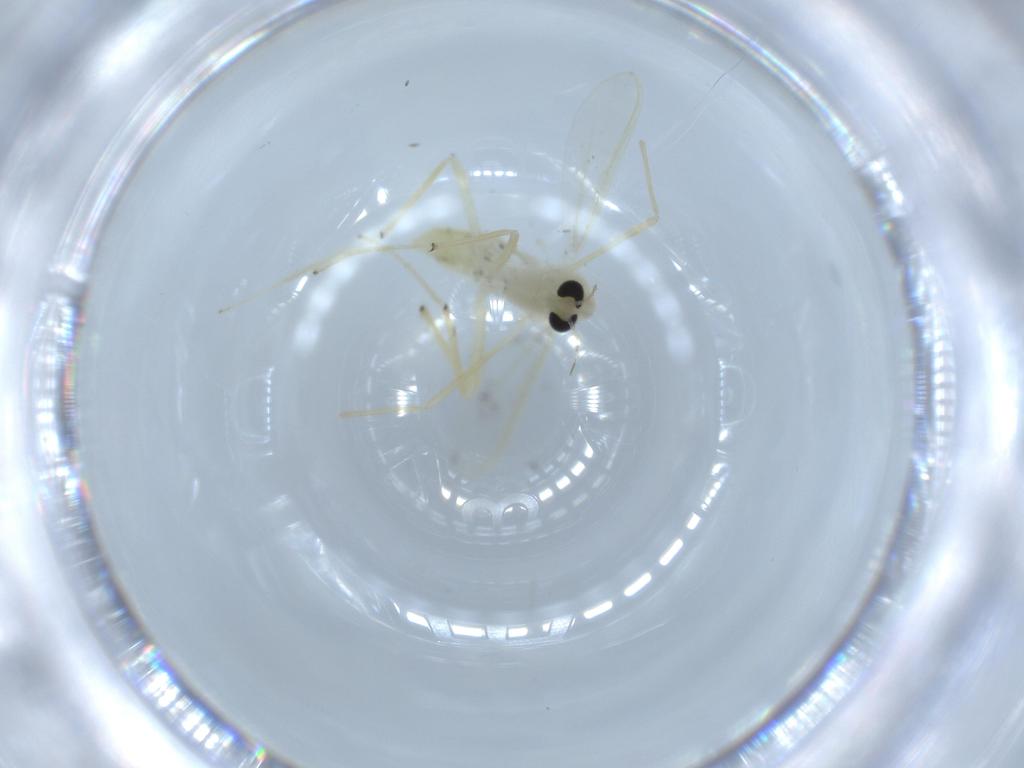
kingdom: Animalia
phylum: Arthropoda
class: Insecta
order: Diptera
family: Chironomidae
